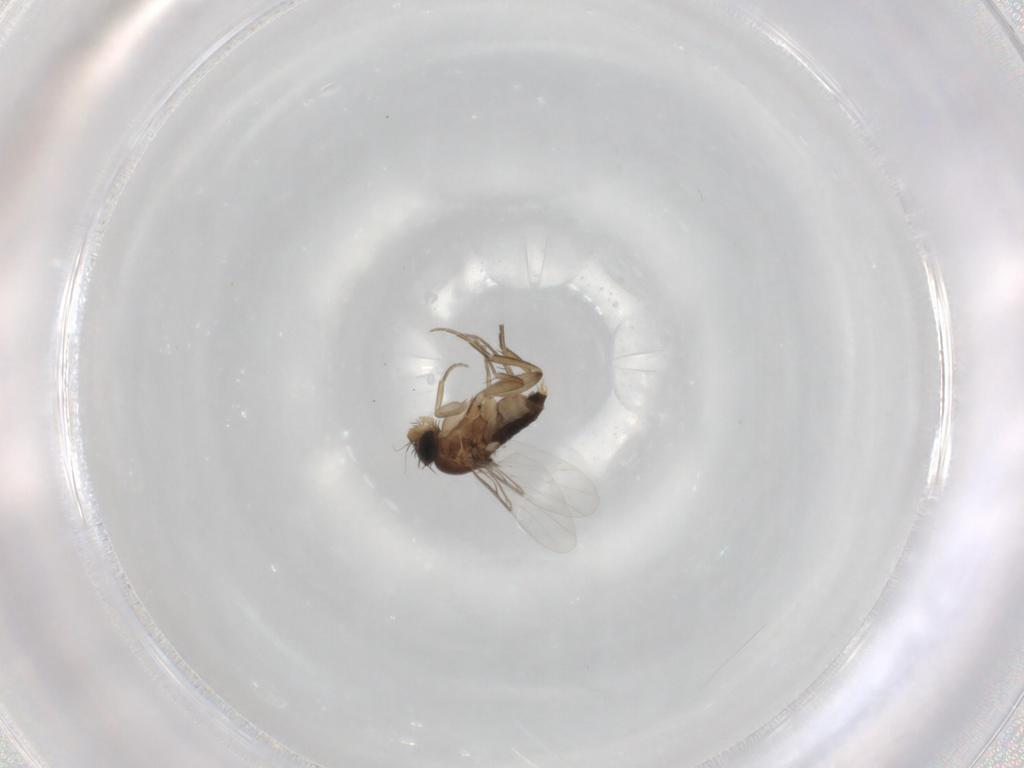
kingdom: Animalia
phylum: Arthropoda
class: Insecta
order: Diptera
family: Phoridae
